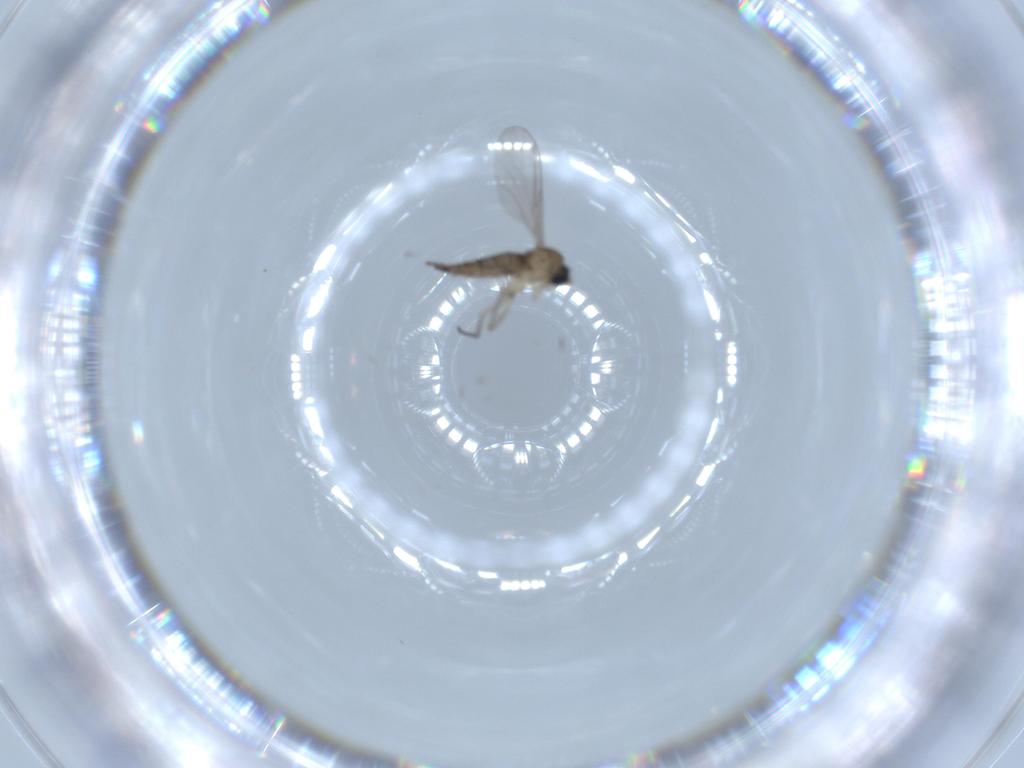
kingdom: Animalia
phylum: Arthropoda
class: Insecta
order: Diptera
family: Sciaridae
